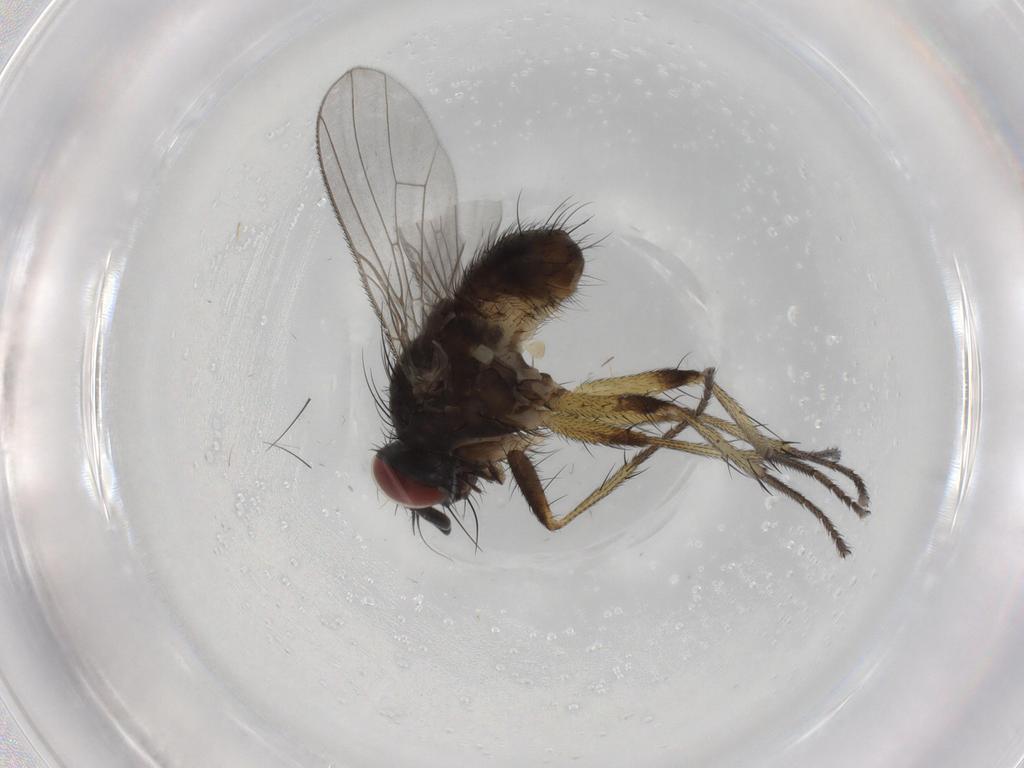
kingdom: Animalia
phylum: Arthropoda
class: Insecta
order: Diptera
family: Muscidae
